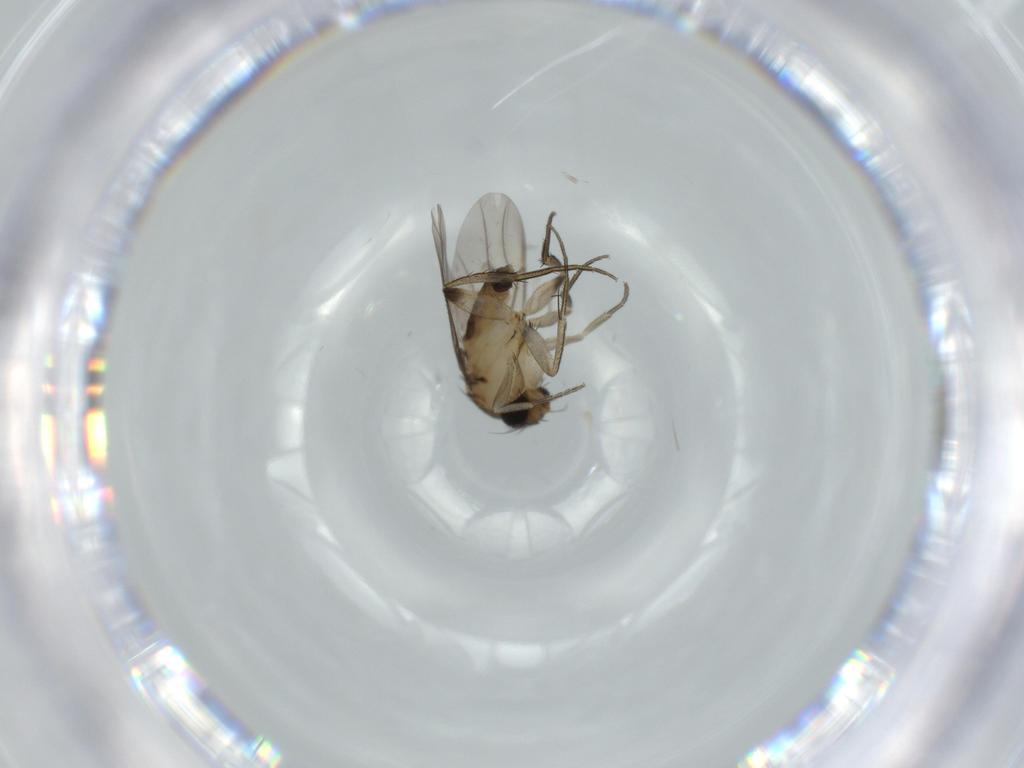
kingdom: Animalia
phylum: Arthropoda
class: Insecta
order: Diptera
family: Phoridae
